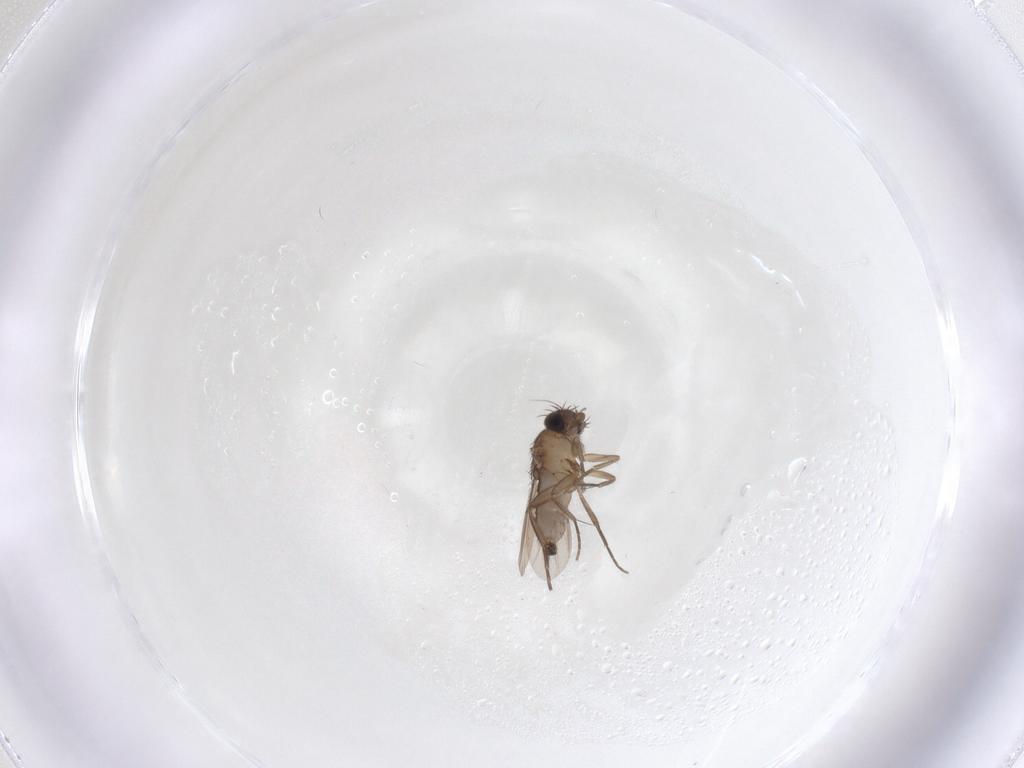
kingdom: Animalia
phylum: Arthropoda
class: Insecta
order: Diptera
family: Phoridae
